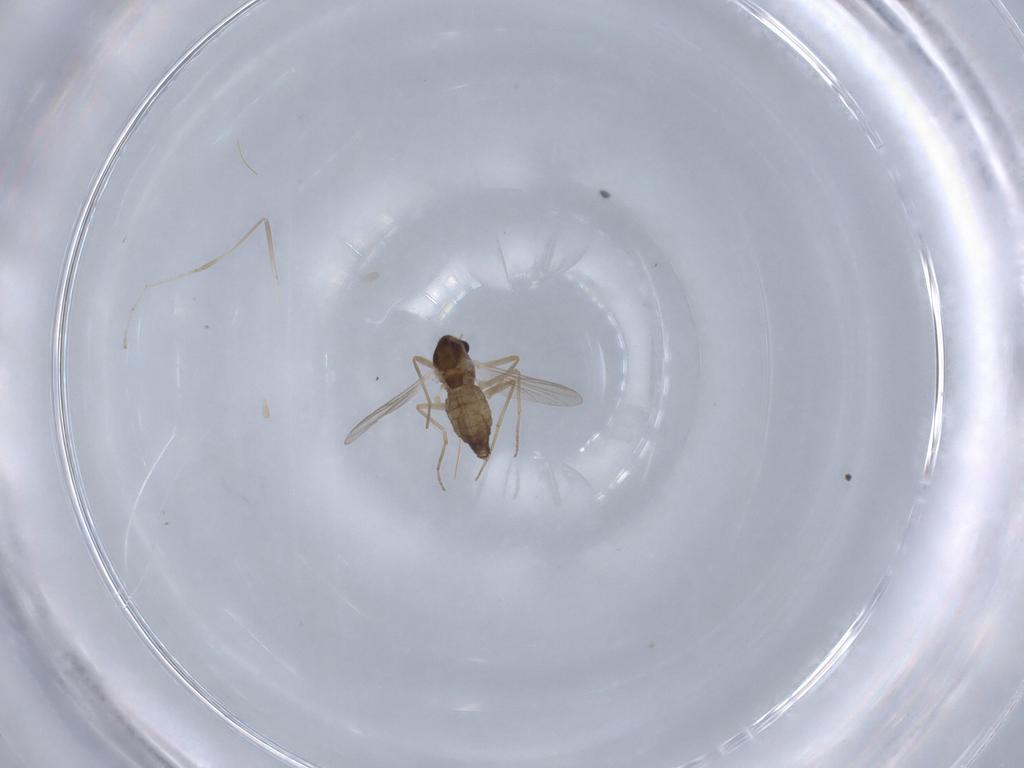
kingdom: Animalia
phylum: Arthropoda
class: Insecta
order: Diptera
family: Chironomidae
